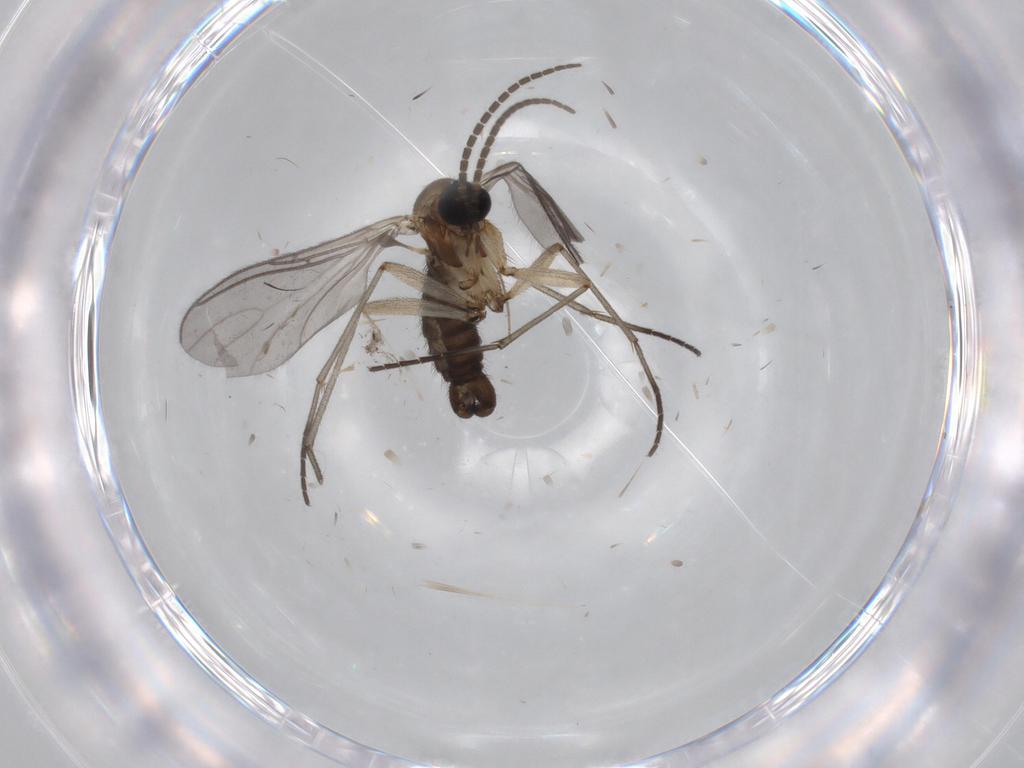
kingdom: Animalia
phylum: Arthropoda
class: Insecta
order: Diptera
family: Sciaridae
